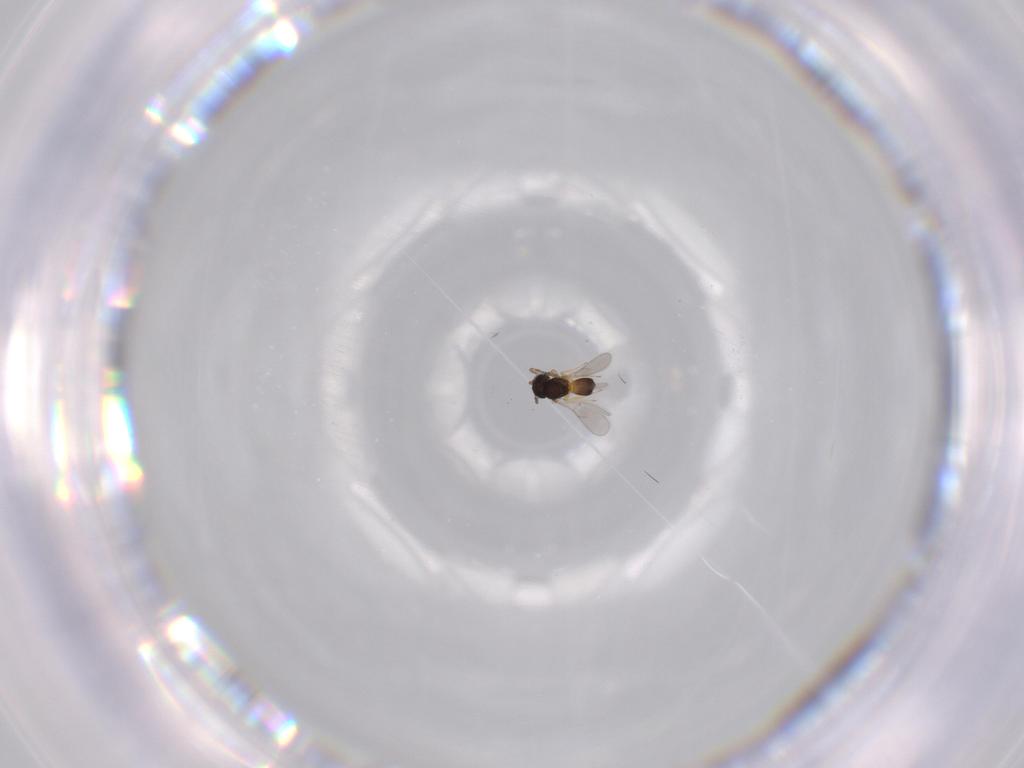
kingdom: Animalia
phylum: Arthropoda
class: Insecta
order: Hymenoptera
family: Scelionidae
